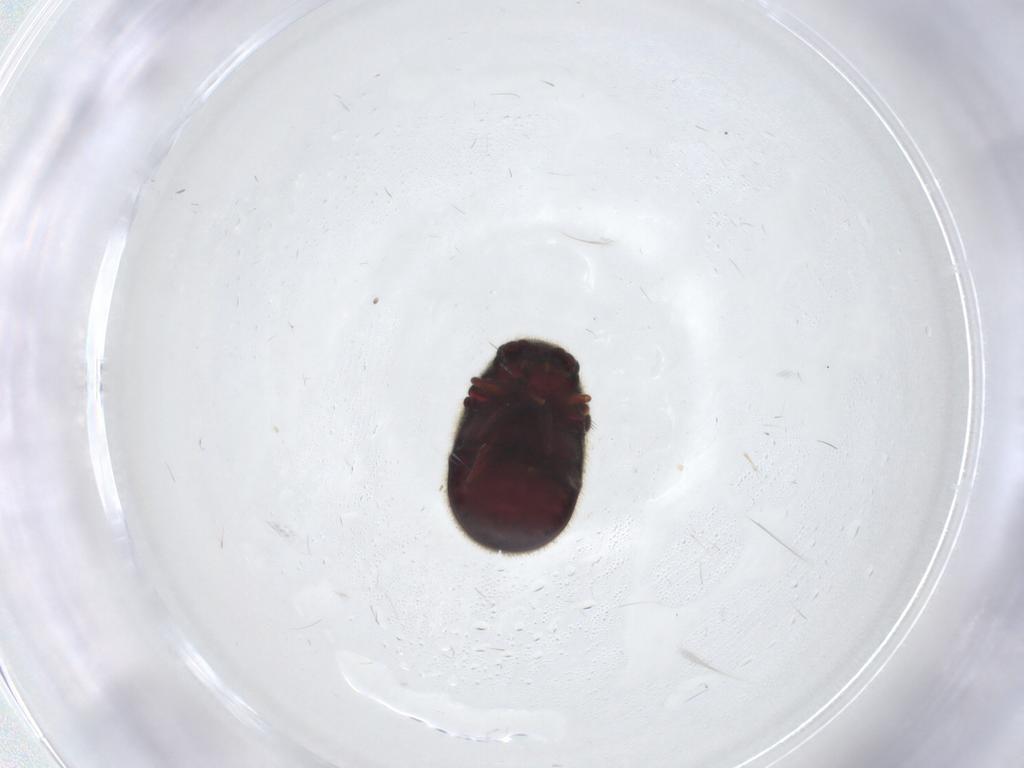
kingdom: Animalia
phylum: Arthropoda
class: Insecta
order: Coleoptera
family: Ptinidae
